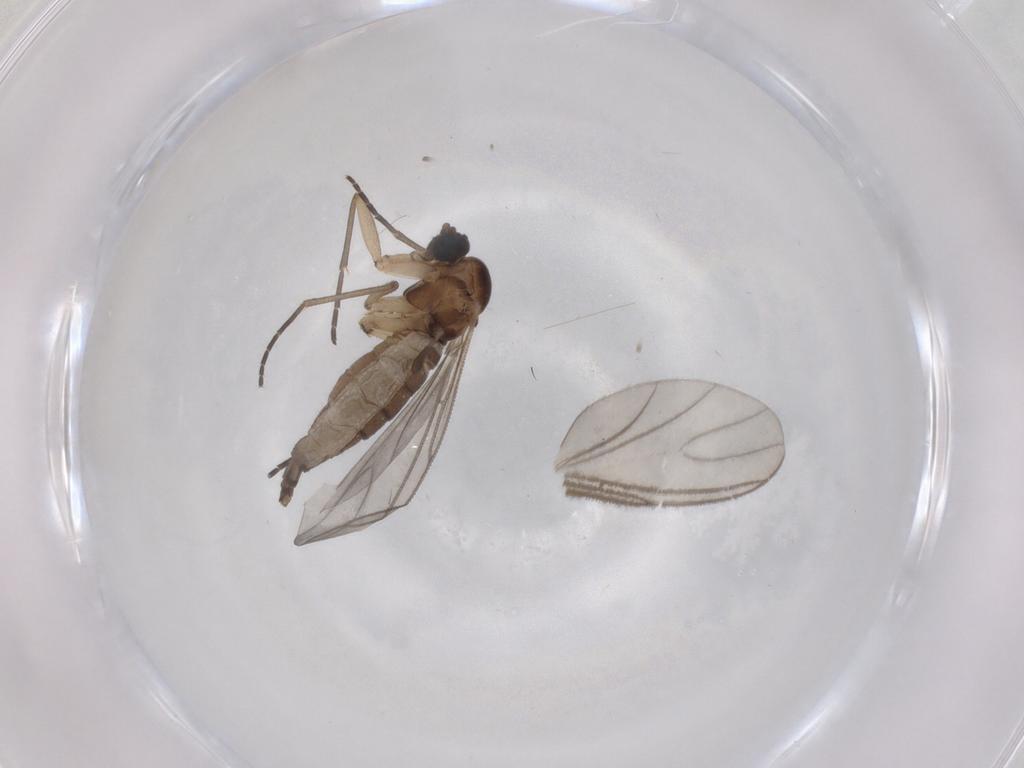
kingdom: Animalia
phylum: Arthropoda
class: Insecta
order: Diptera
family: Sciaridae
